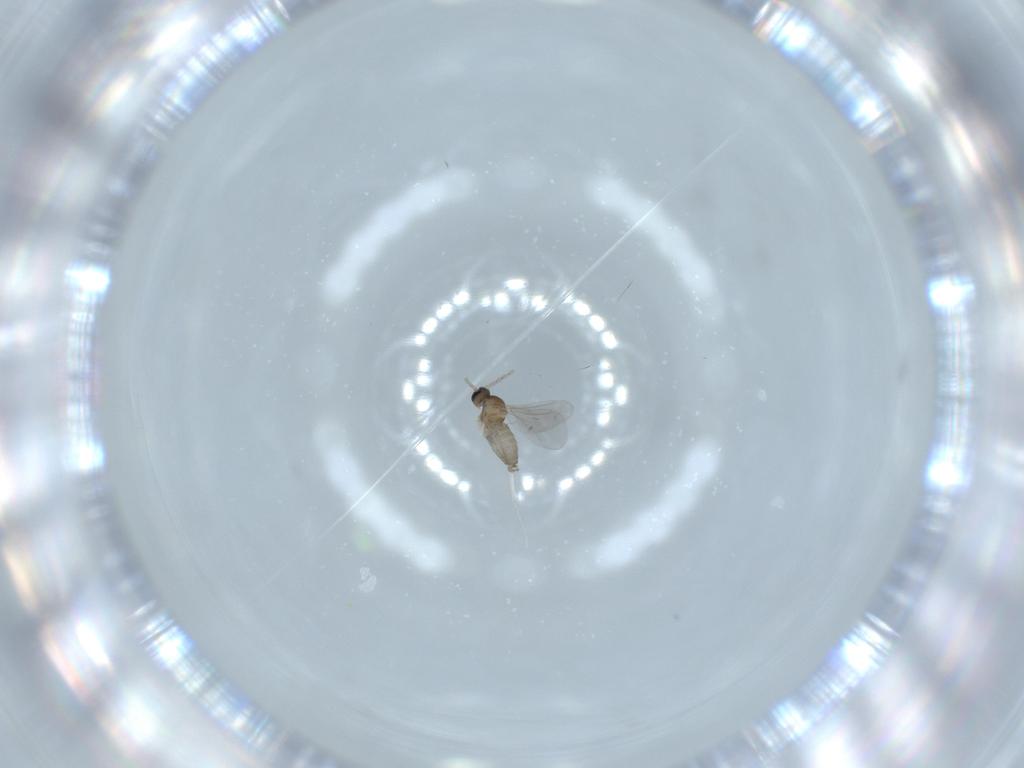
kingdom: Animalia
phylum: Arthropoda
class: Insecta
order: Diptera
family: Cecidomyiidae
